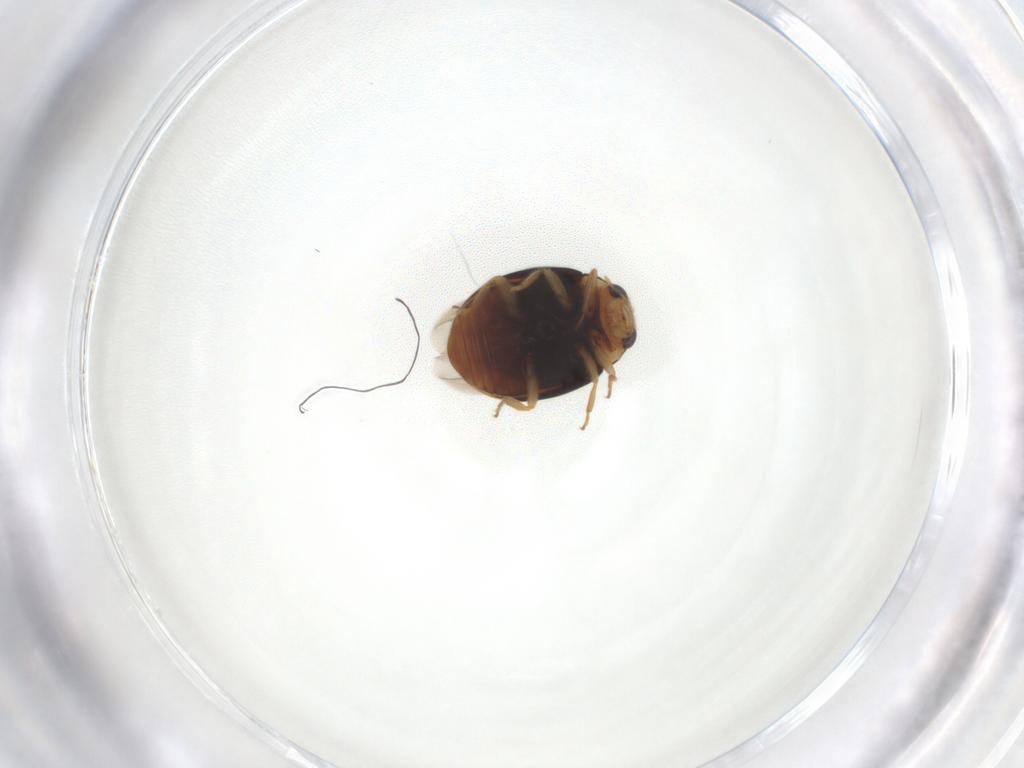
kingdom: Animalia
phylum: Arthropoda
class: Insecta
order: Coleoptera
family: Coccinellidae
